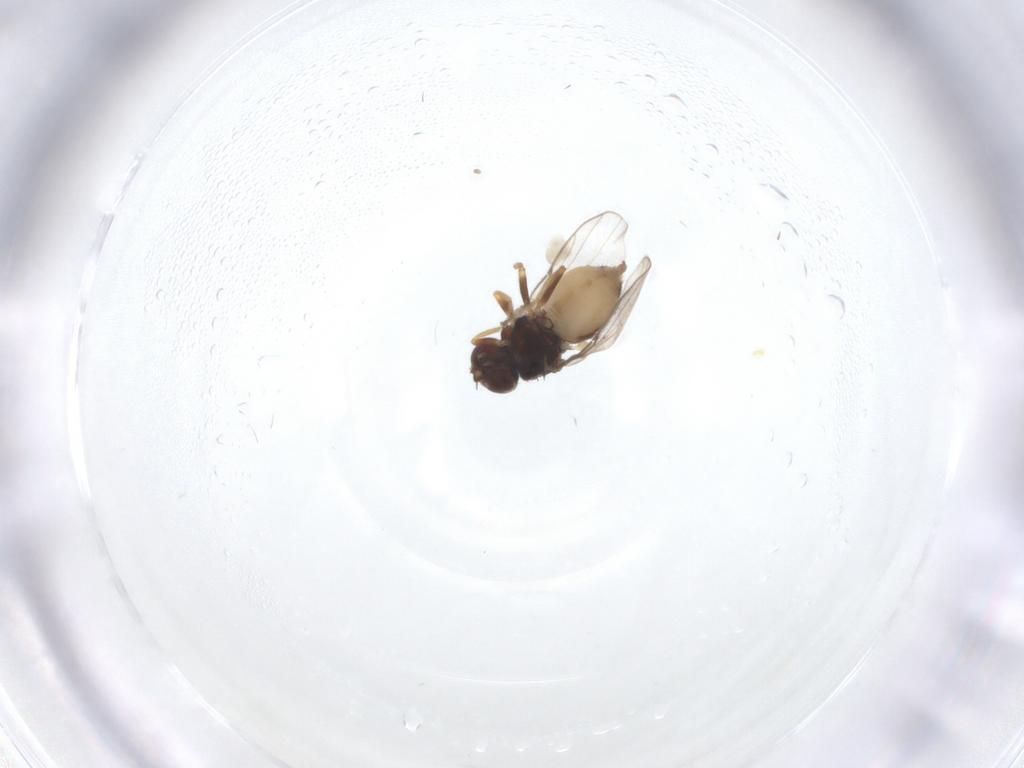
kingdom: Animalia
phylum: Arthropoda
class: Insecta
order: Diptera
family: Chloropidae
